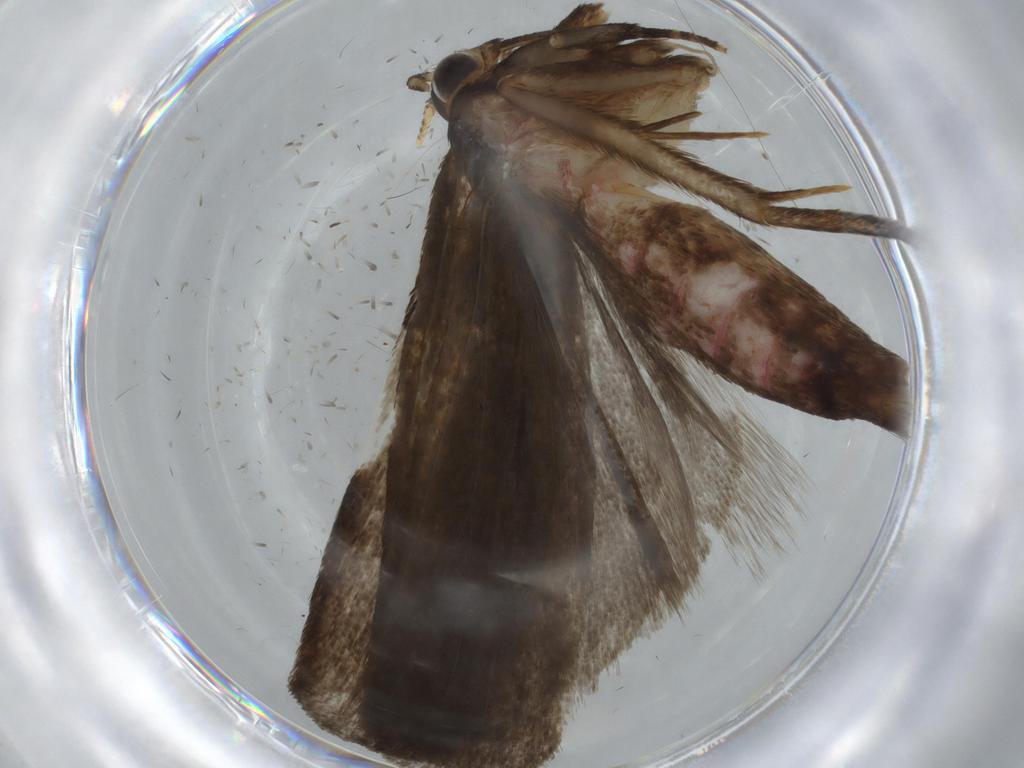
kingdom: Animalia
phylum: Arthropoda
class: Insecta
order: Lepidoptera
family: Autostichidae
